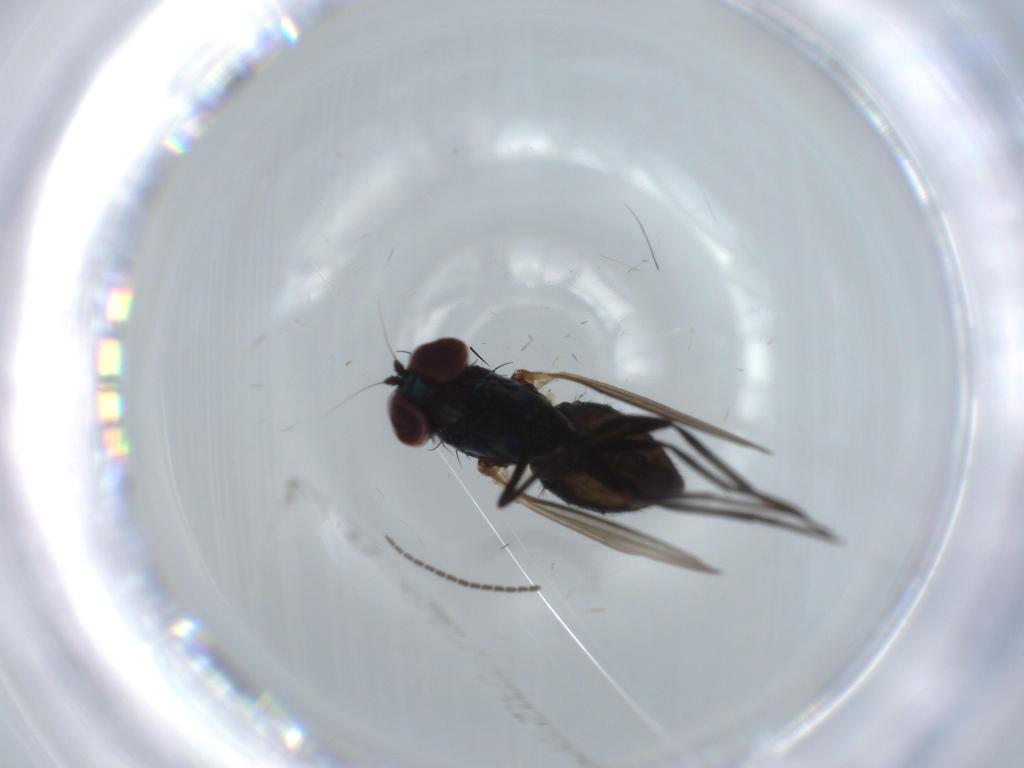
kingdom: Animalia
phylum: Arthropoda
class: Insecta
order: Diptera
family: Dolichopodidae
